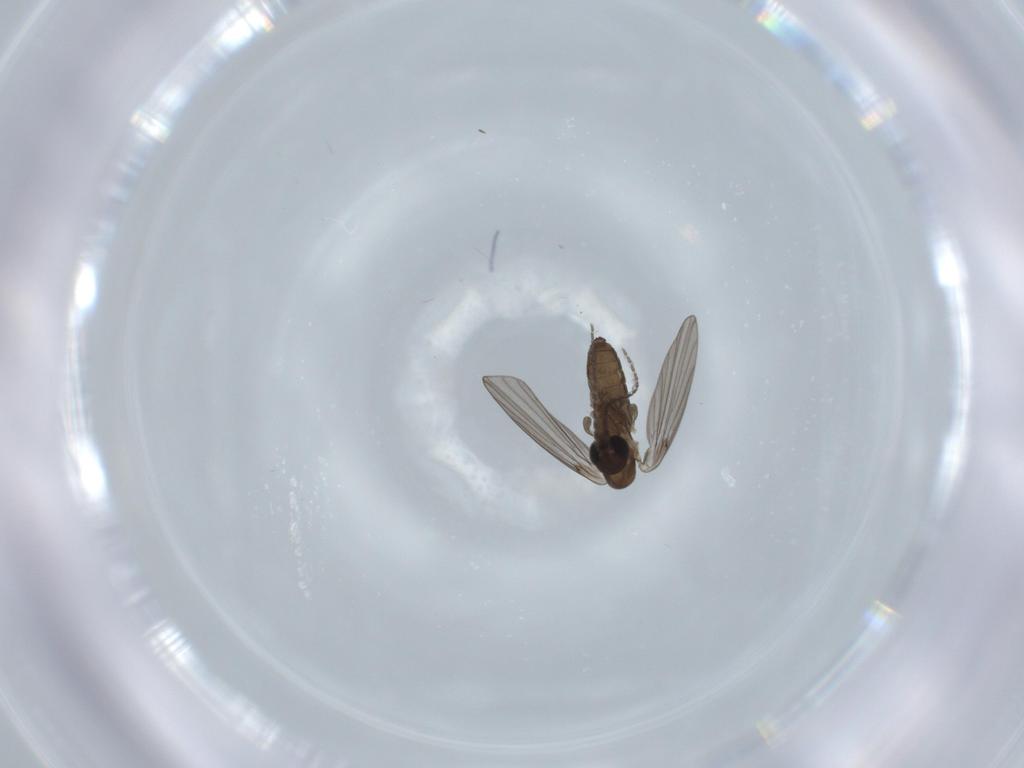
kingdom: Animalia
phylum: Arthropoda
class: Insecta
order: Diptera
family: Psychodidae
